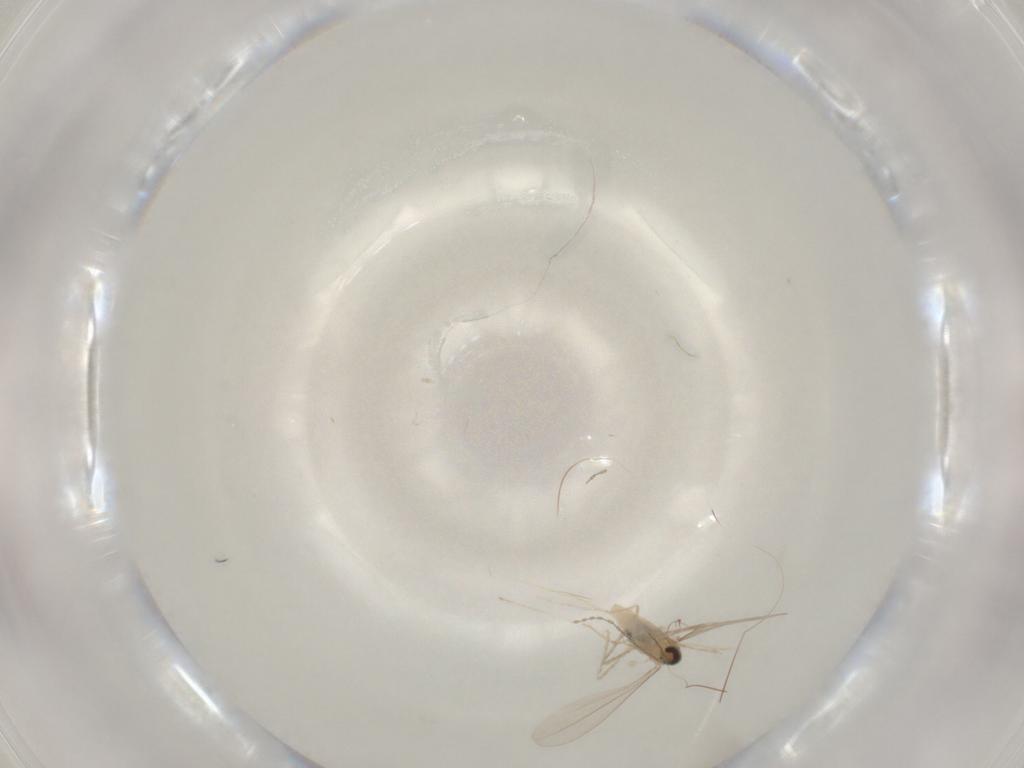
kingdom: Animalia
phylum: Arthropoda
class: Insecta
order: Diptera
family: Cecidomyiidae
